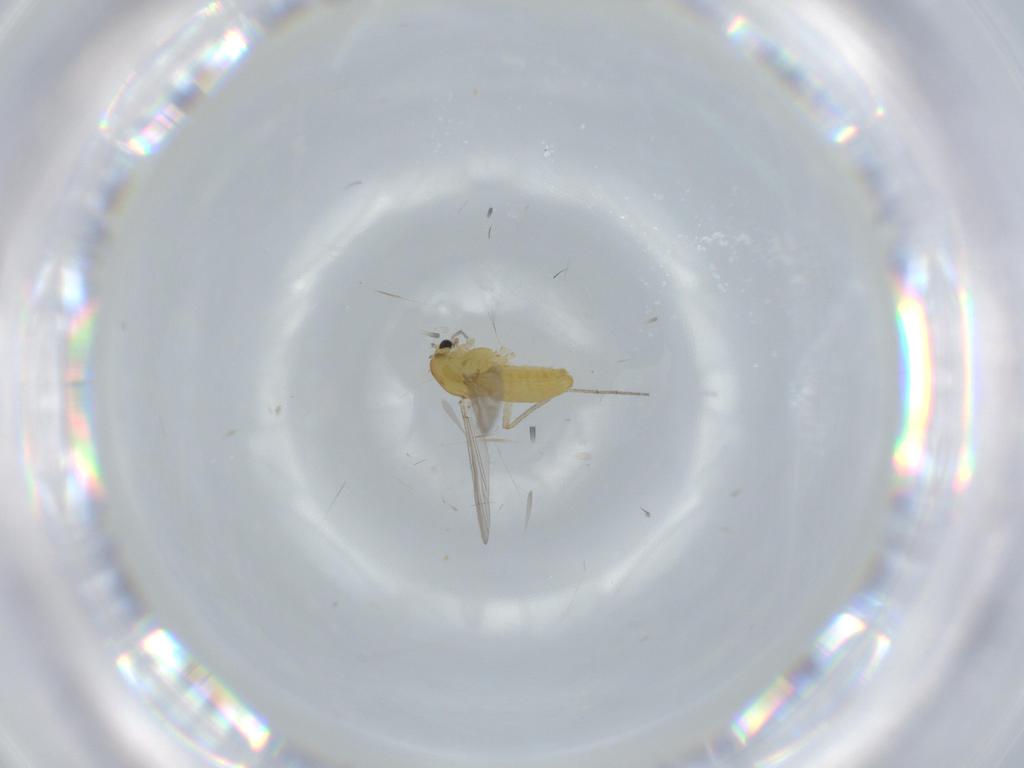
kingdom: Animalia
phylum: Arthropoda
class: Insecta
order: Diptera
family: Chironomidae
